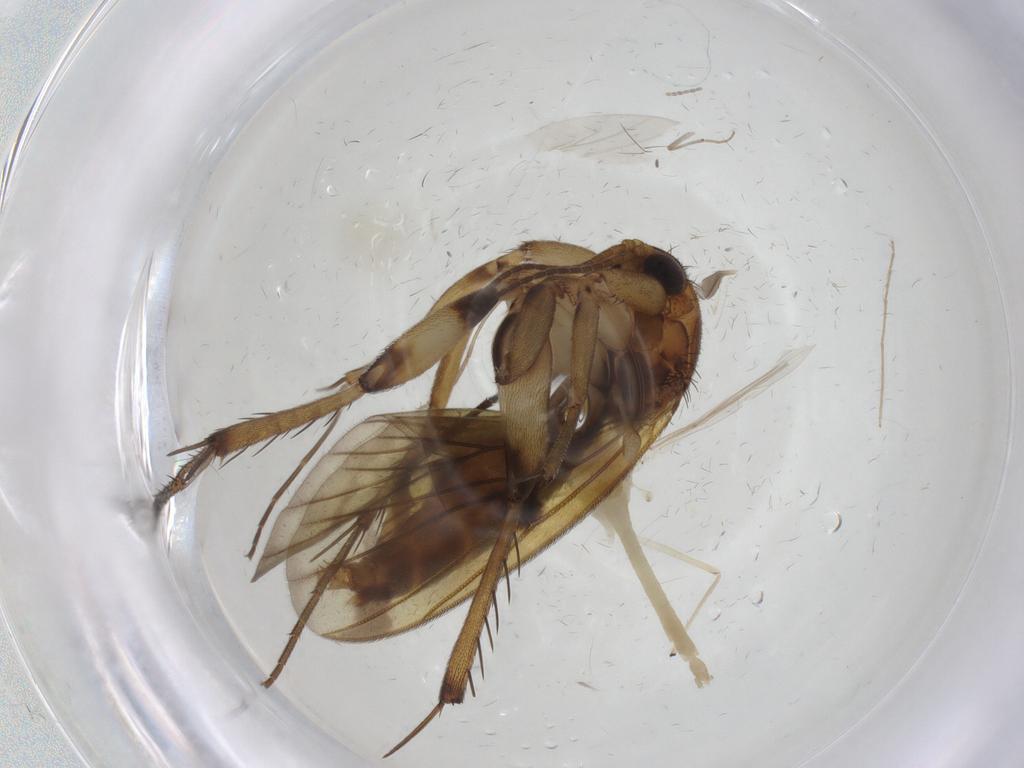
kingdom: Animalia
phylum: Arthropoda
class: Insecta
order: Diptera
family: Chironomidae
